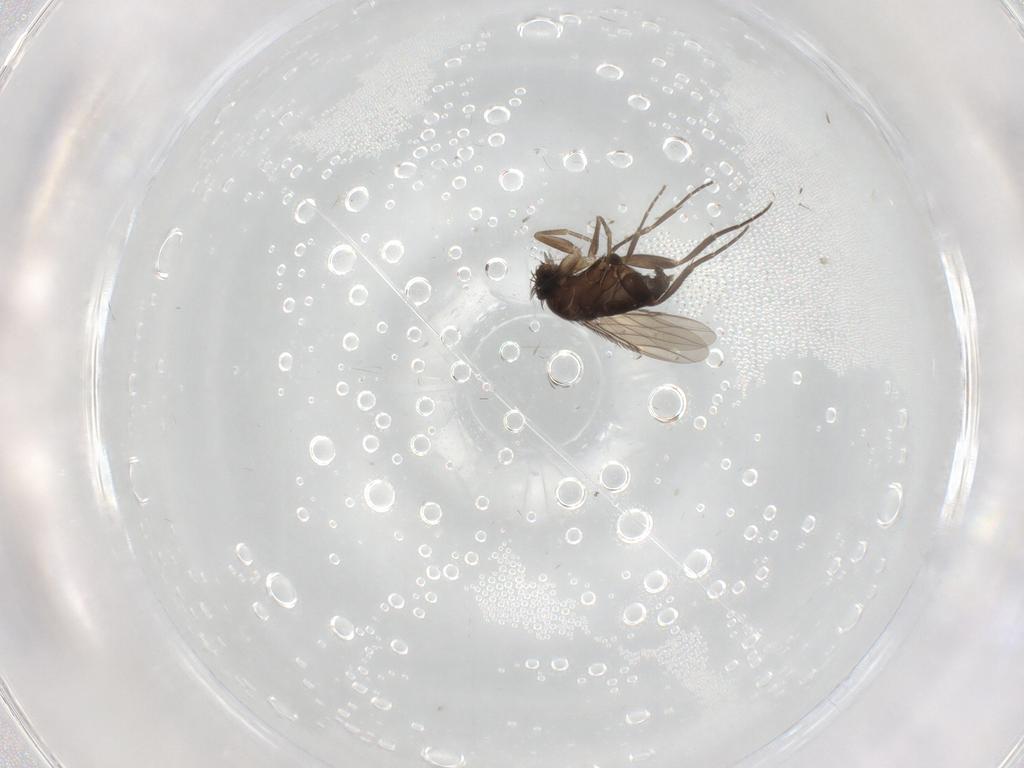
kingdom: Animalia
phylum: Arthropoda
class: Insecta
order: Diptera
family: Phoridae
